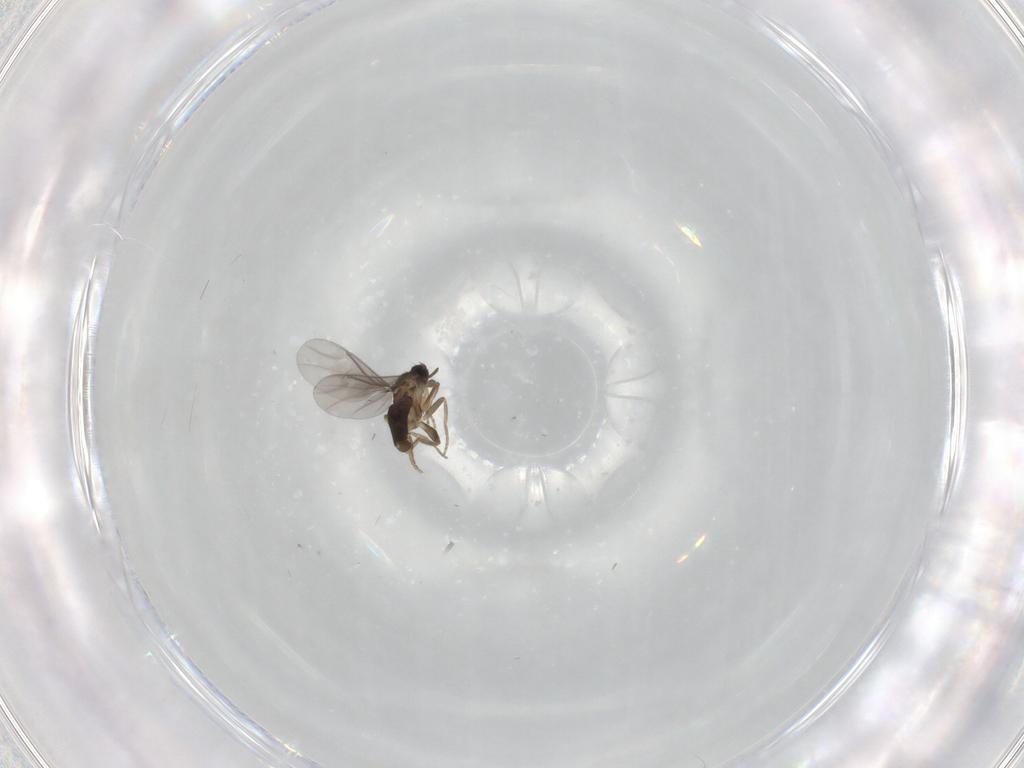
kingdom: Animalia
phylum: Arthropoda
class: Insecta
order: Diptera
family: Phoridae
